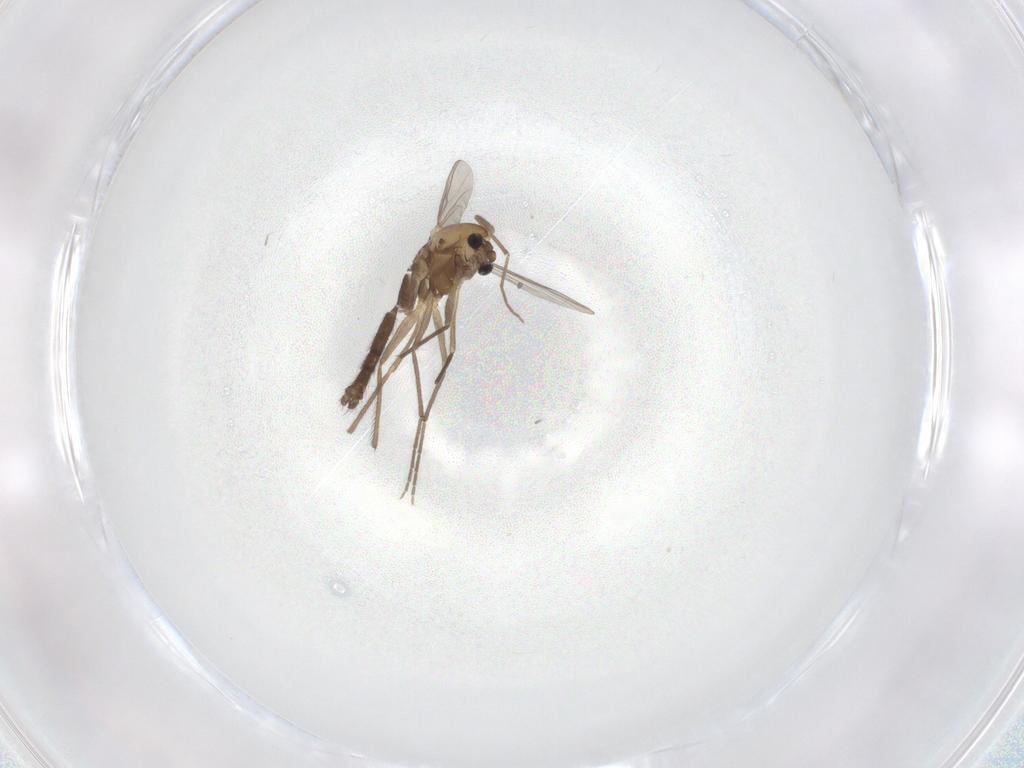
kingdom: Animalia
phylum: Arthropoda
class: Insecta
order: Diptera
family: Chironomidae
